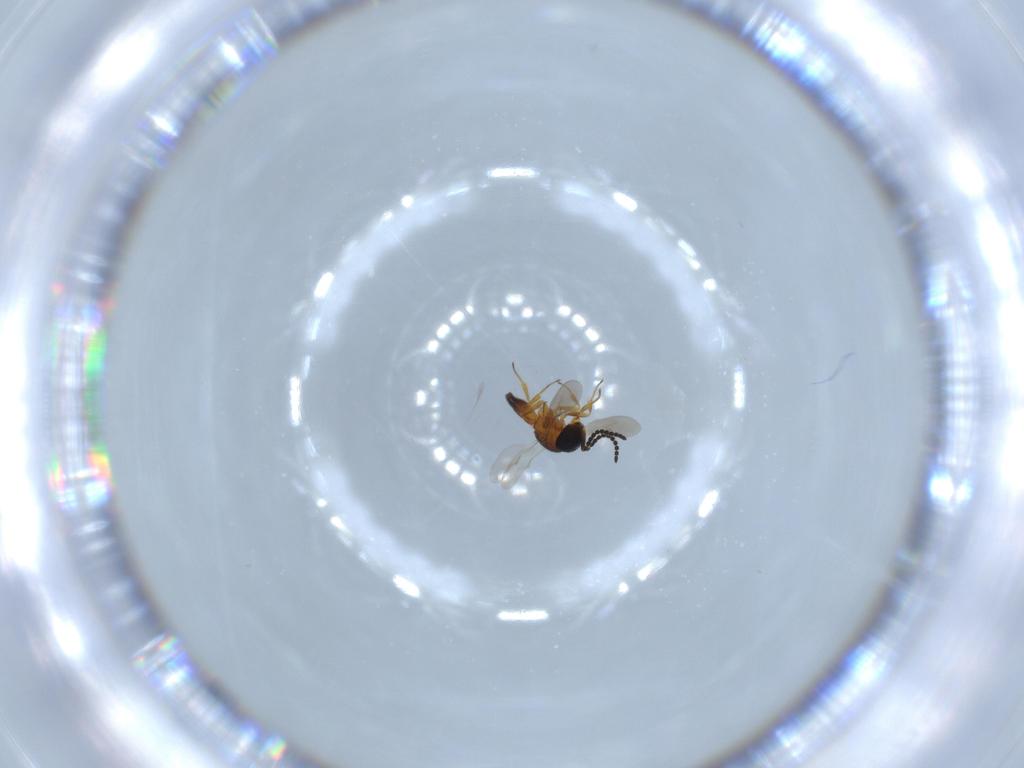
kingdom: Animalia
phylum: Arthropoda
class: Insecta
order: Hymenoptera
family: Scelionidae
